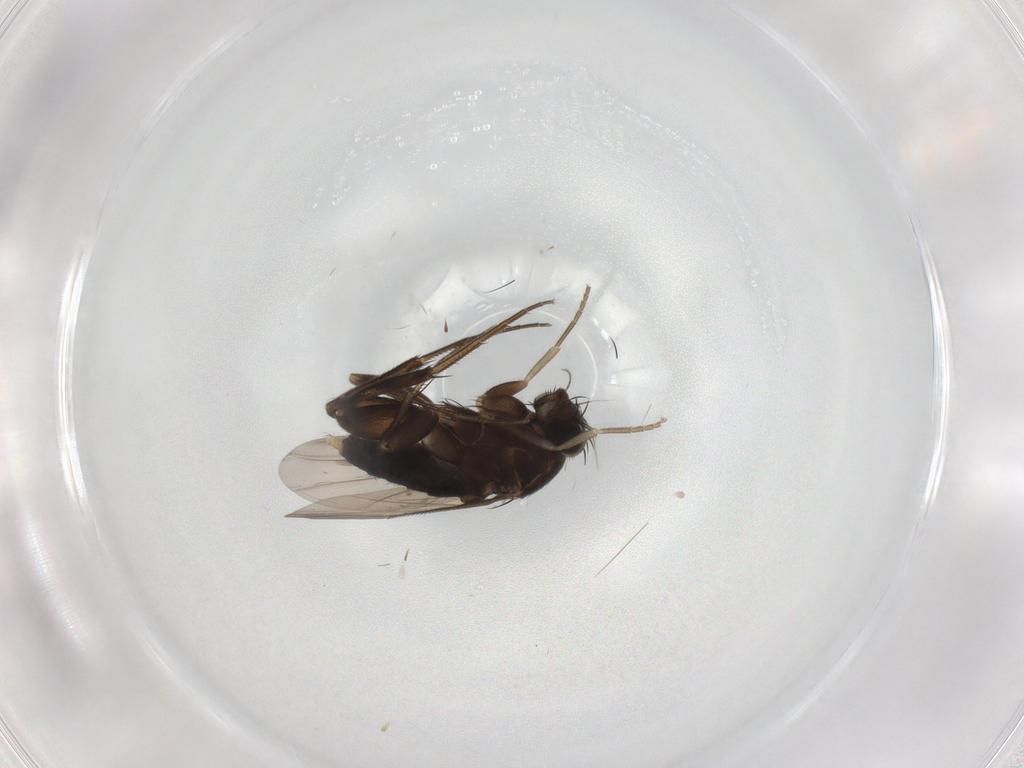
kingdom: Animalia
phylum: Arthropoda
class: Insecta
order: Diptera
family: Phoridae
